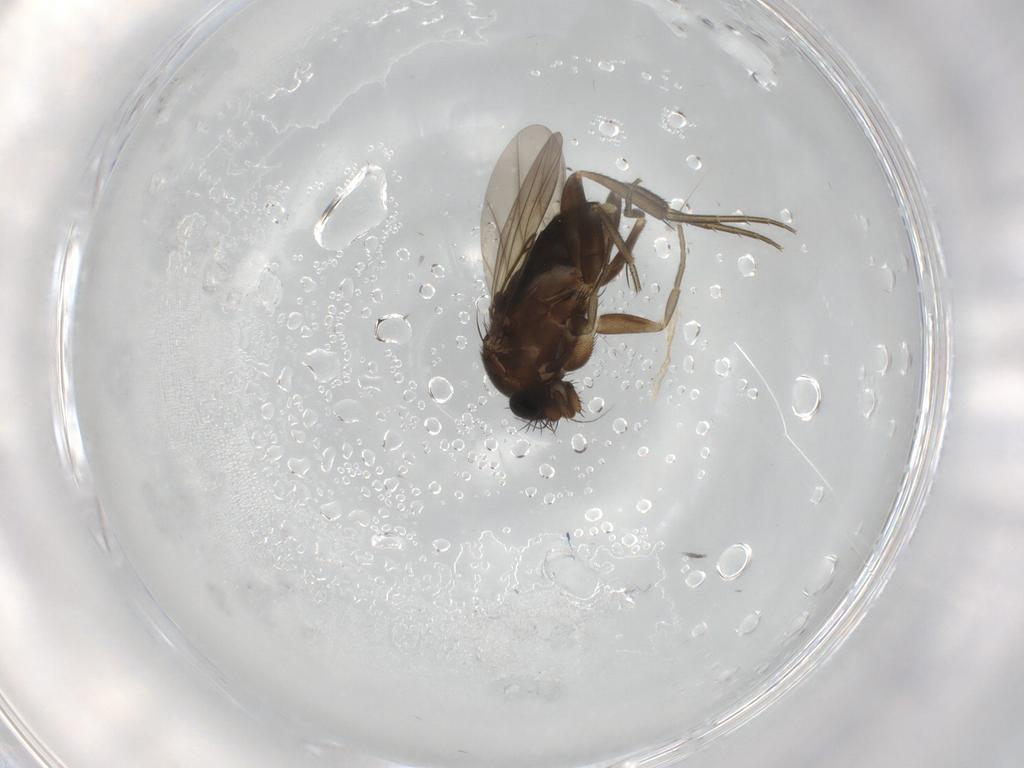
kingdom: Animalia
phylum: Arthropoda
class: Insecta
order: Diptera
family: Phoridae
